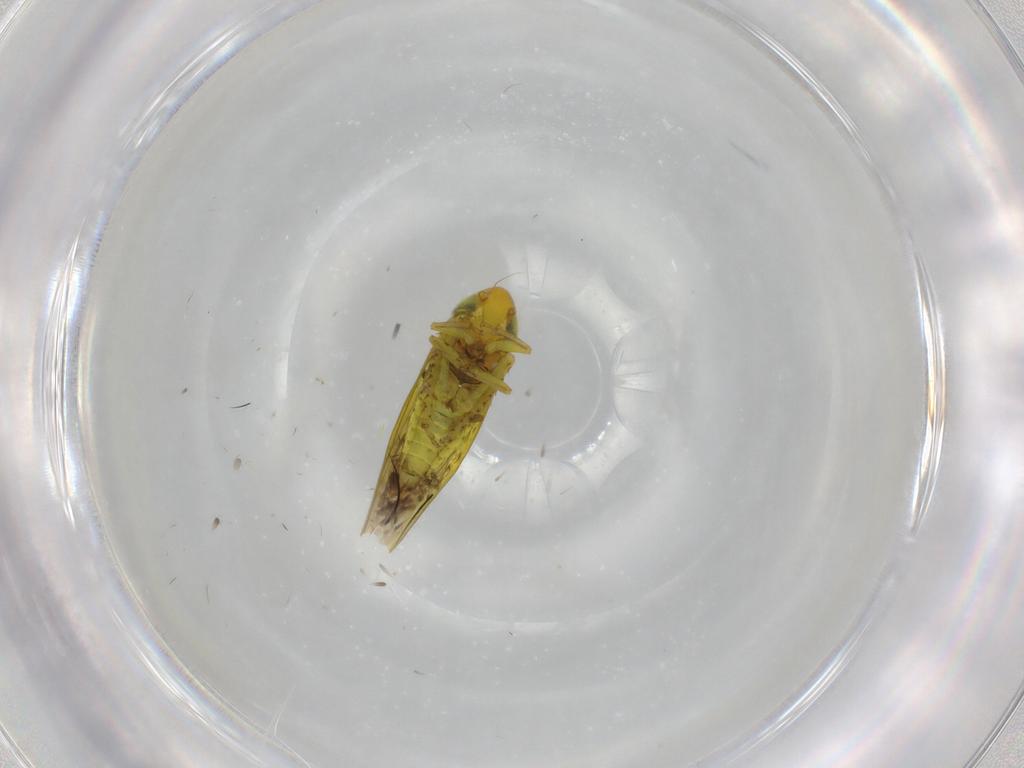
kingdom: Animalia
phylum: Arthropoda
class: Insecta
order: Hemiptera
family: Cicadellidae
